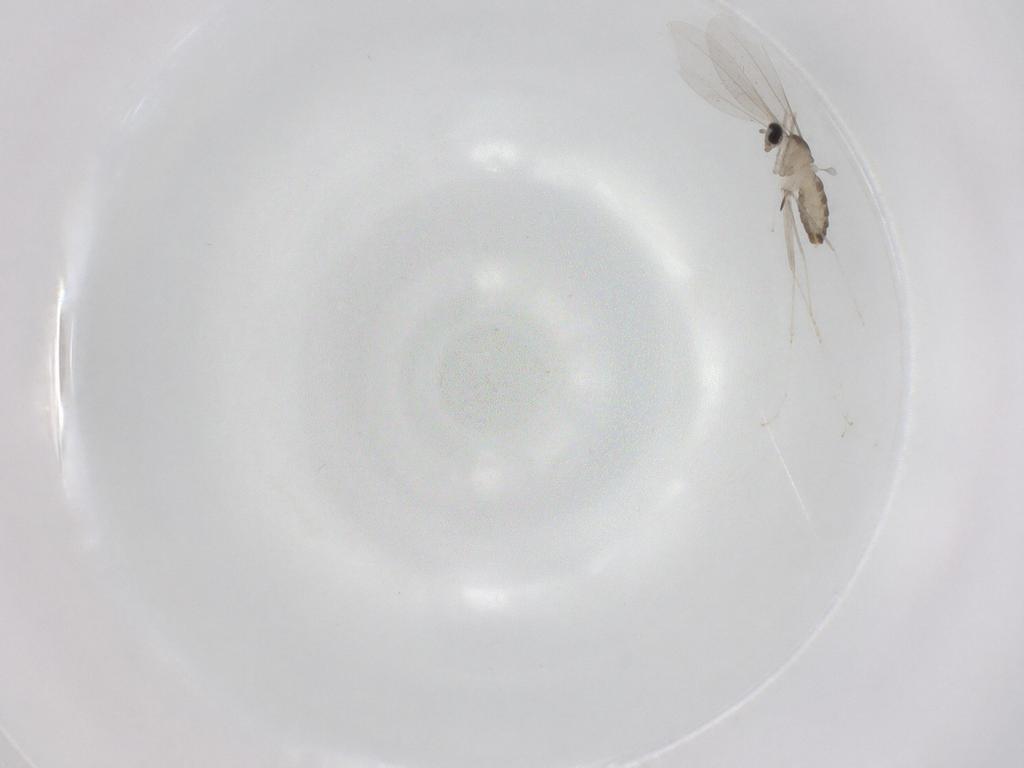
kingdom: Animalia
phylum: Arthropoda
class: Insecta
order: Diptera
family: Cecidomyiidae
